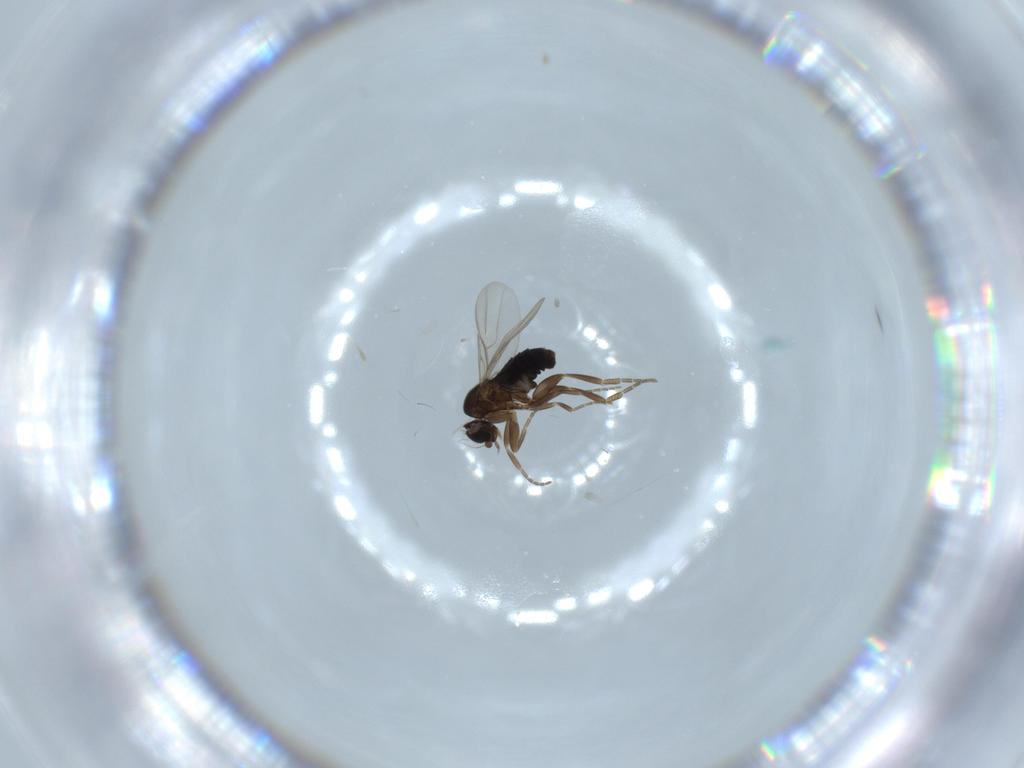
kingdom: Animalia
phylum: Arthropoda
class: Insecta
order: Diptera
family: Phoridae
